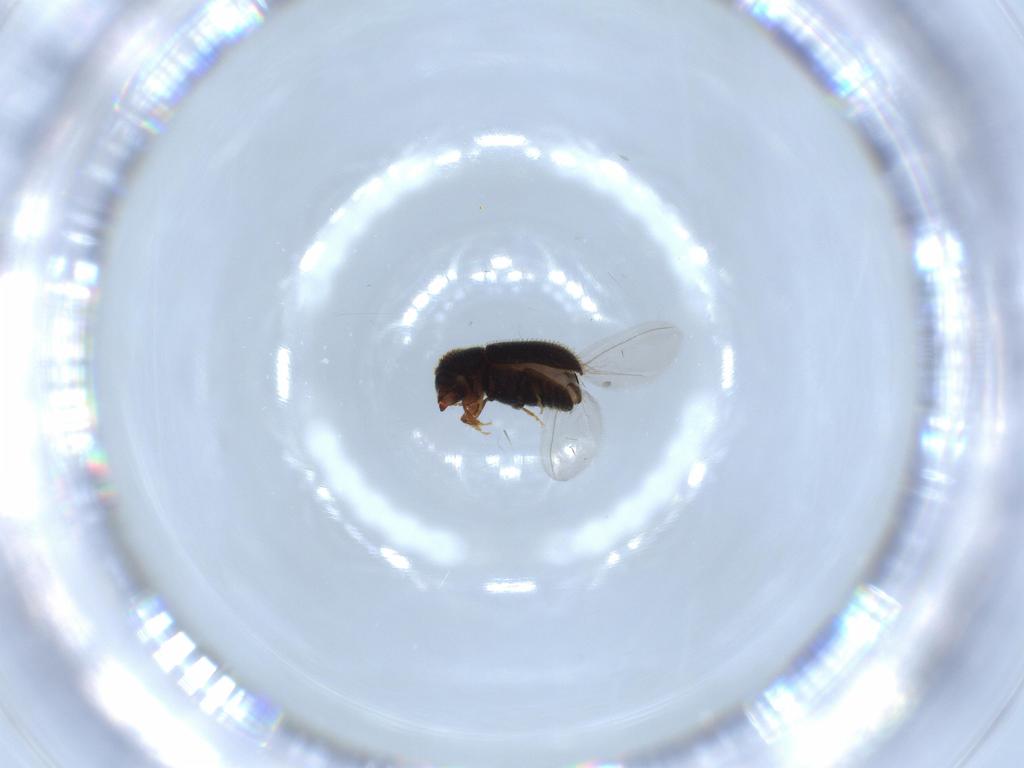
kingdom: Animalia
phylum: Arthropoda
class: Insecta
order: Coleoptera
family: Curculionidae
